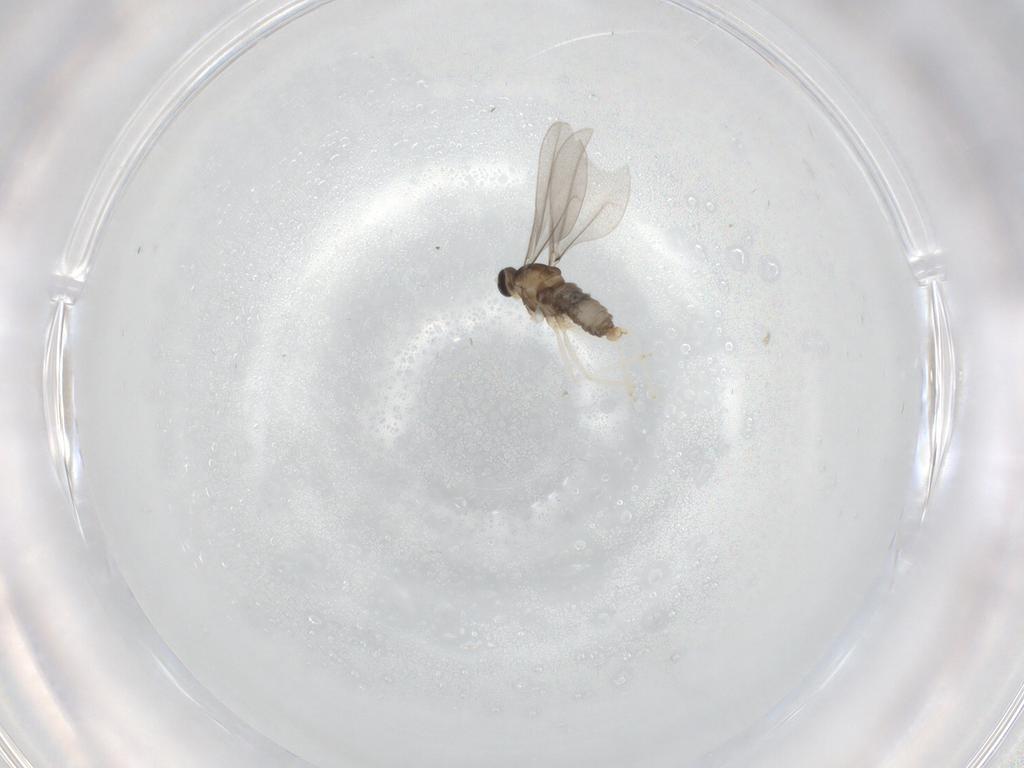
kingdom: Animalia
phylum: Arthropoda
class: Insecta
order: Diptera
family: Cecidomyiidae
